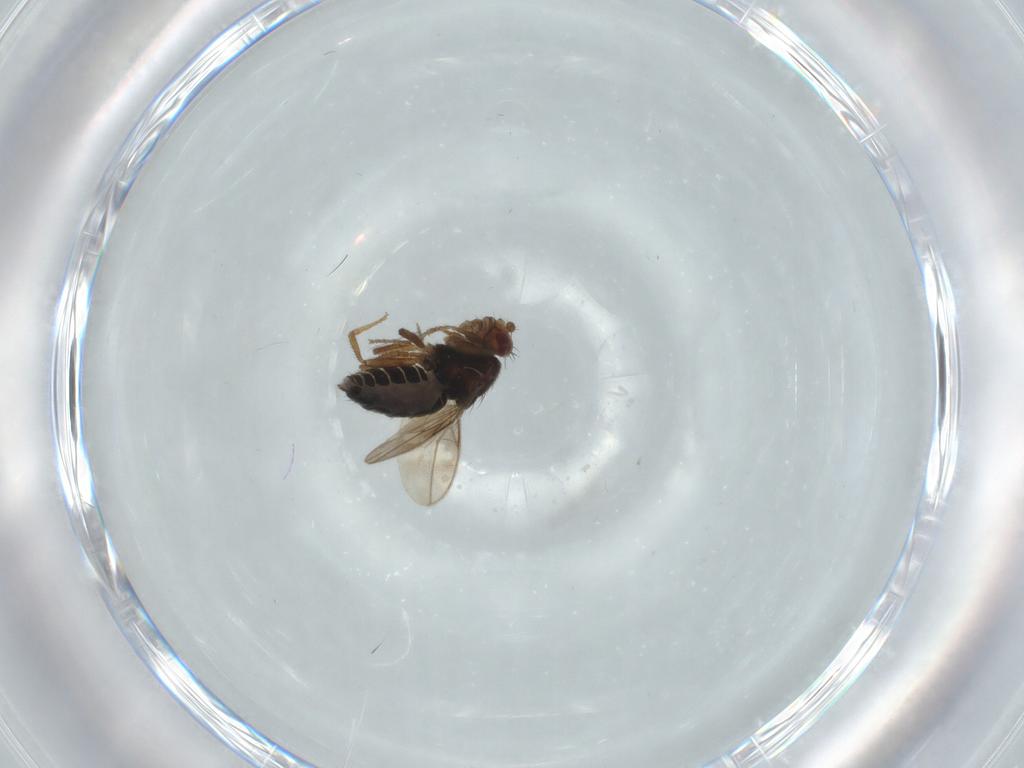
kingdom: Animalia
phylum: Arthropoda
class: Insecta
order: Diptera
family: Sphaeroceridae
